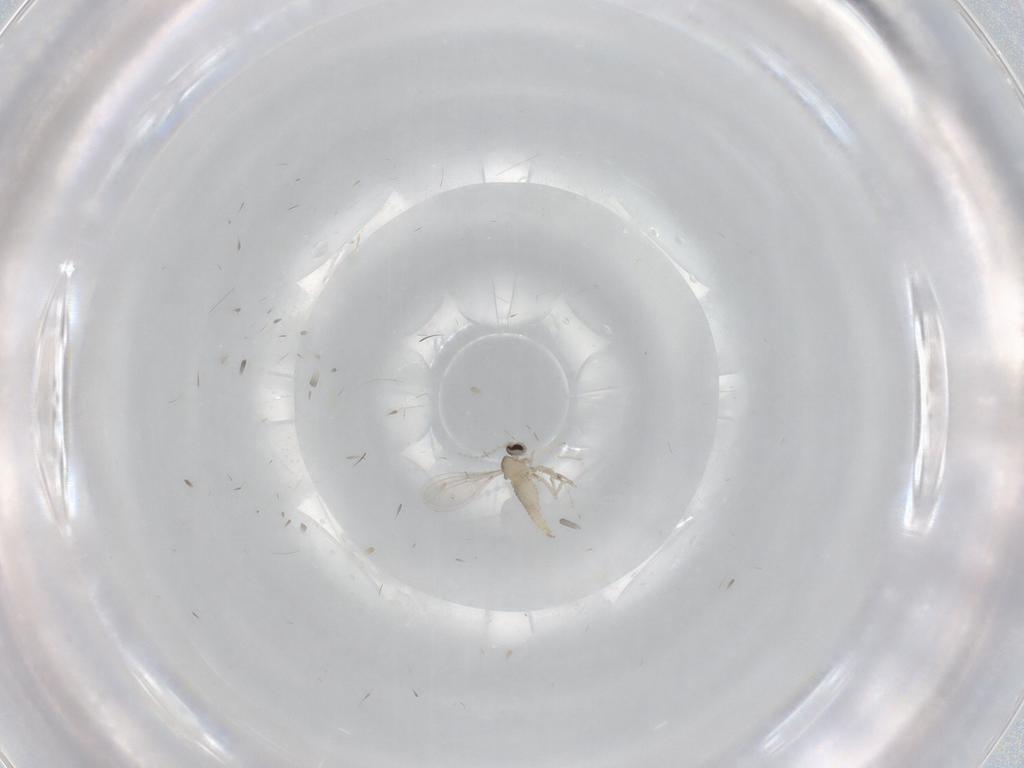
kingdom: Animalia
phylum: Arthropoda
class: Insecta
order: Diptera
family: Cecidomyiidae
